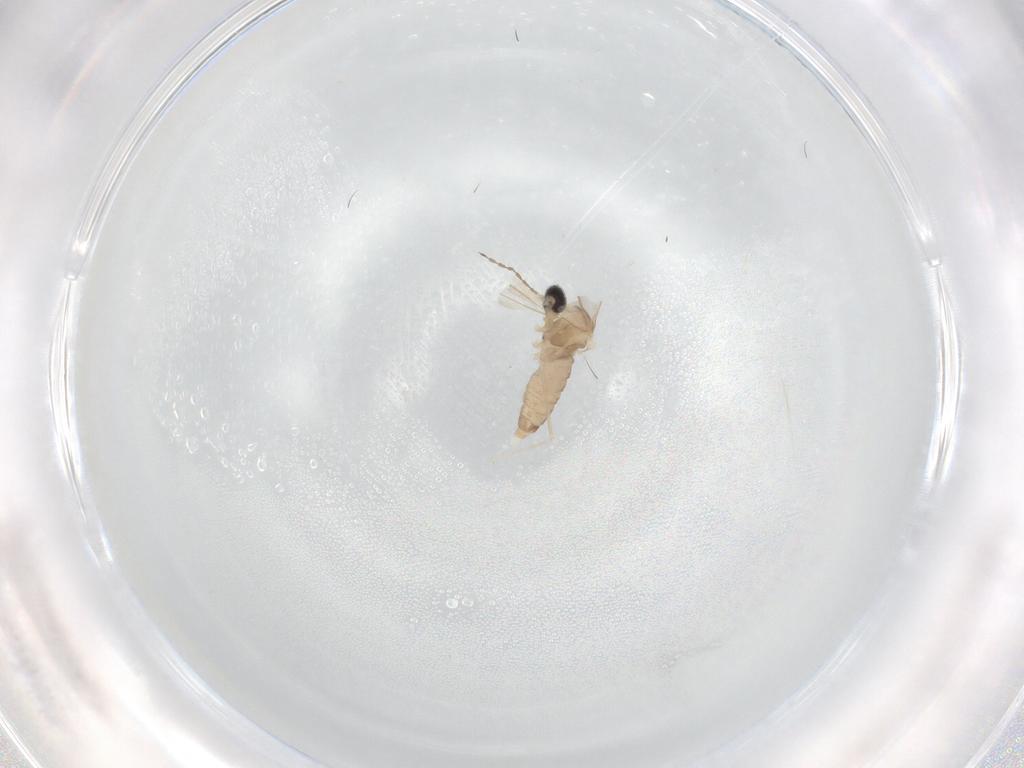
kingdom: Animalia
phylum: Arthropoda
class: Insecta
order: Diptera
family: Cecidomyiidae
